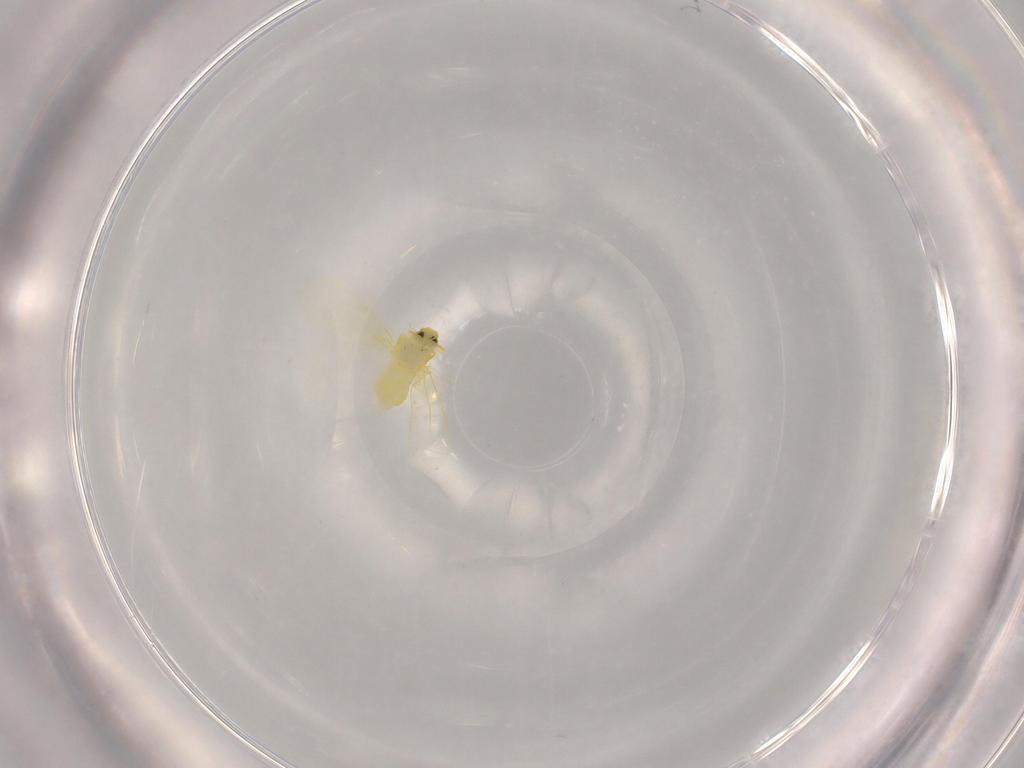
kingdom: Animalia
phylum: Arthropoda
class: Insecta
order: Hemiptera
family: Aleyrodidae
